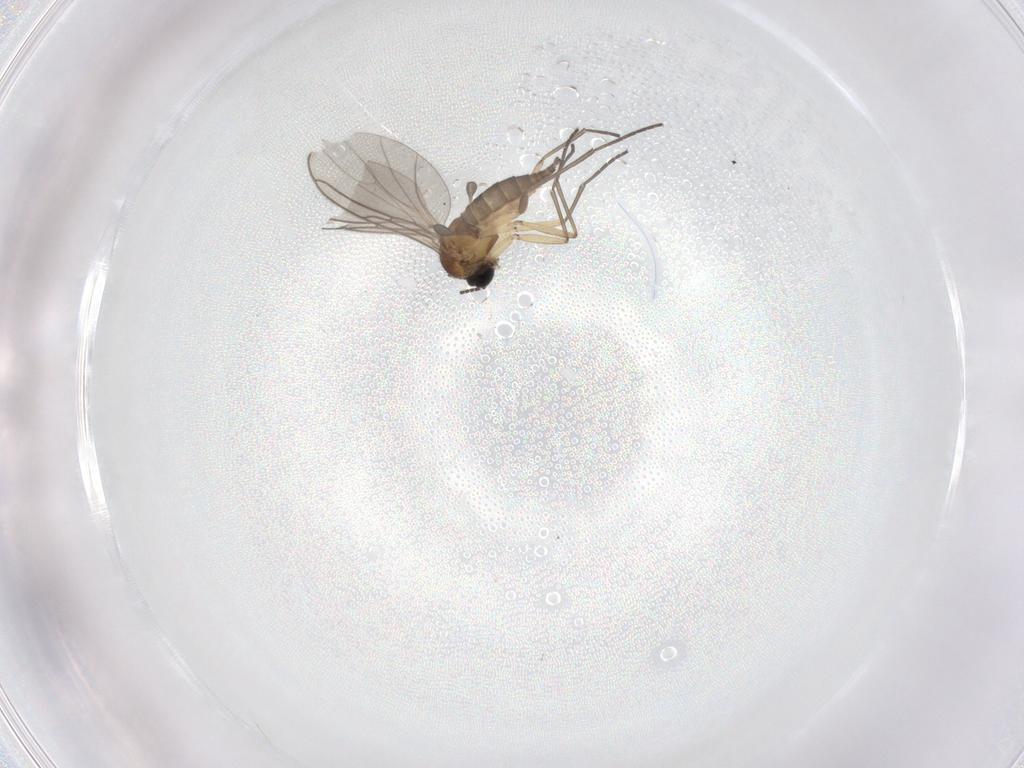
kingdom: Animalia
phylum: Arthropoda
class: Insecta
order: Diptera
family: Sciaridae
